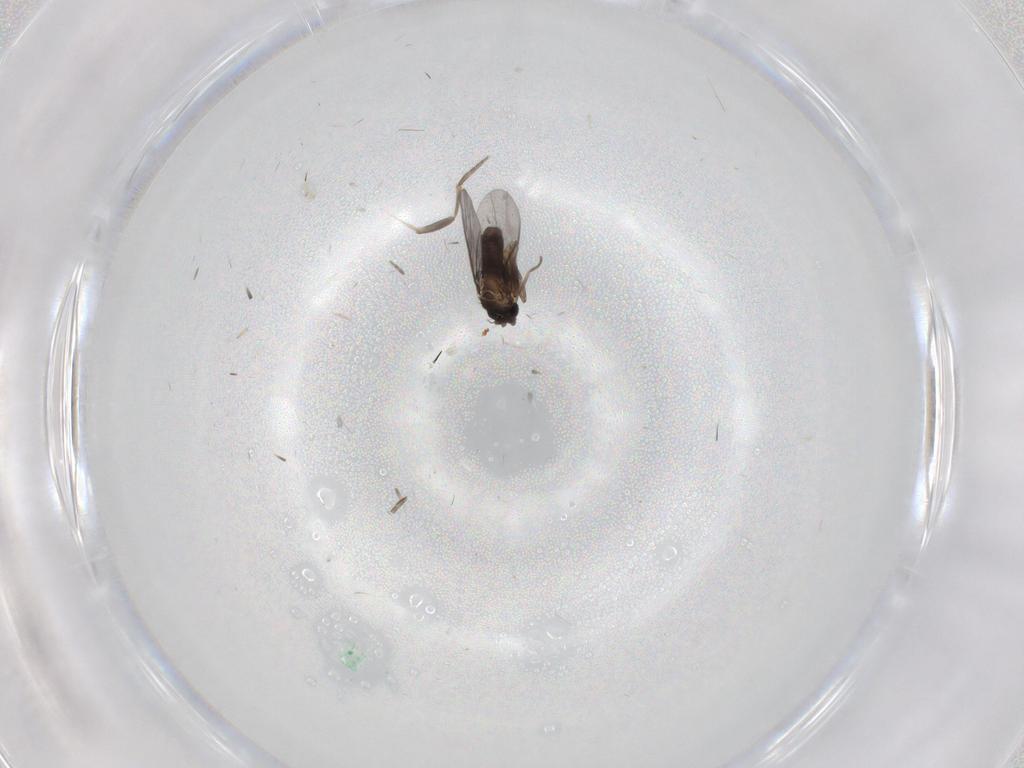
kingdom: Animalia
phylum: Arthropoda
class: Insecta
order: Diptera
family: Cecidomyiidae
